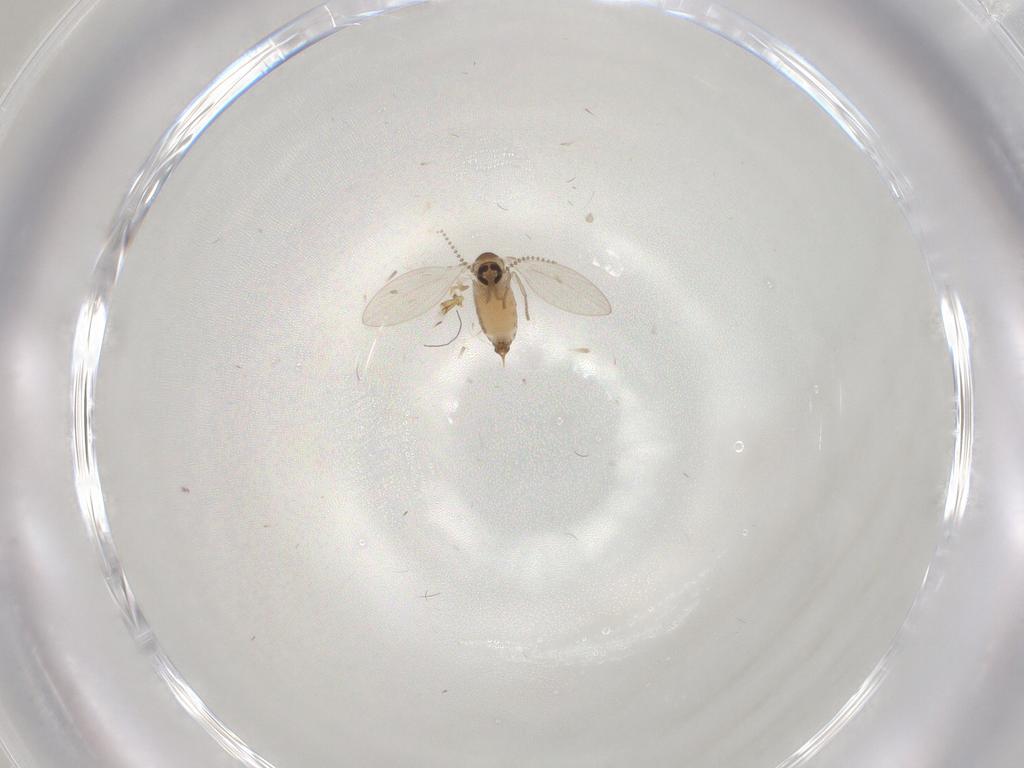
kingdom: Animalia
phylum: Arthropoda
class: Insecta
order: Diptera
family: Psychodidae
